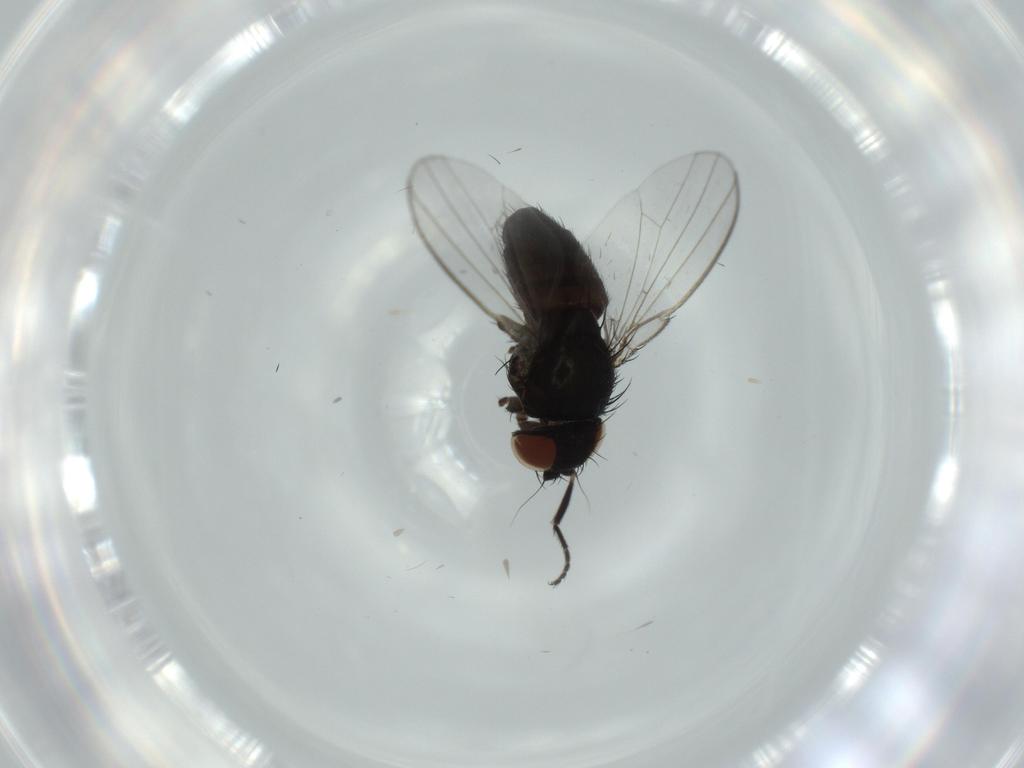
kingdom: Animalia
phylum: Arthropoda
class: Insecta
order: Diptera
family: Milichiidae
